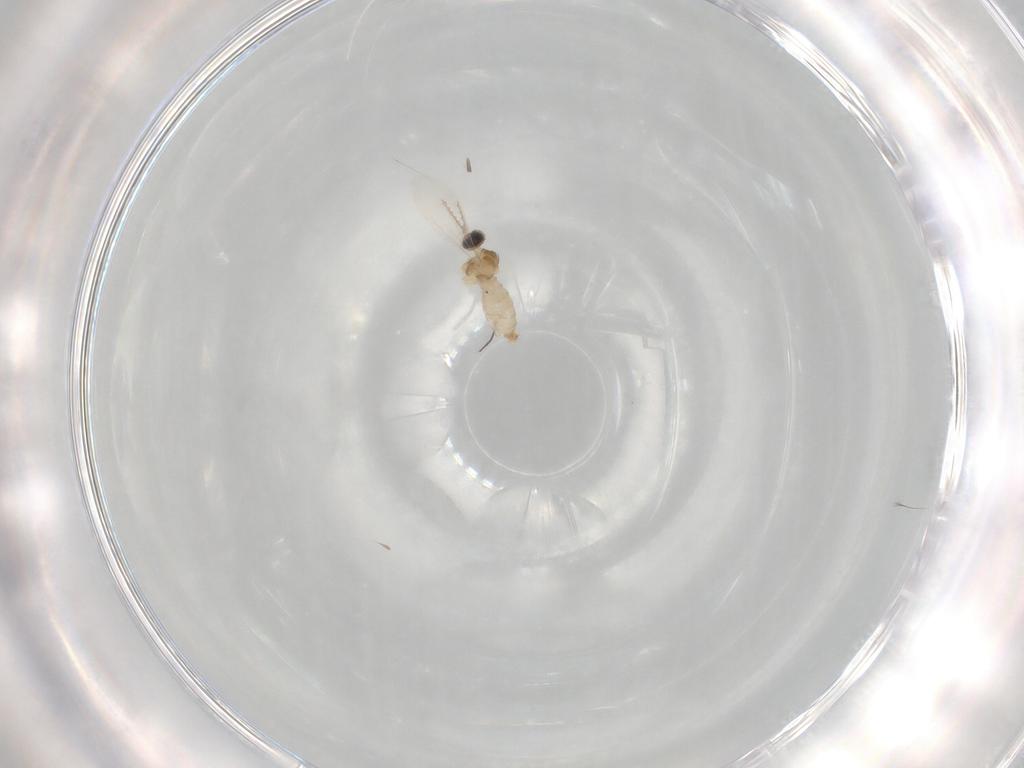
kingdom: Animalia
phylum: Arthropoda
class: Insecta
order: Diptera
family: Cecidomyiidae
